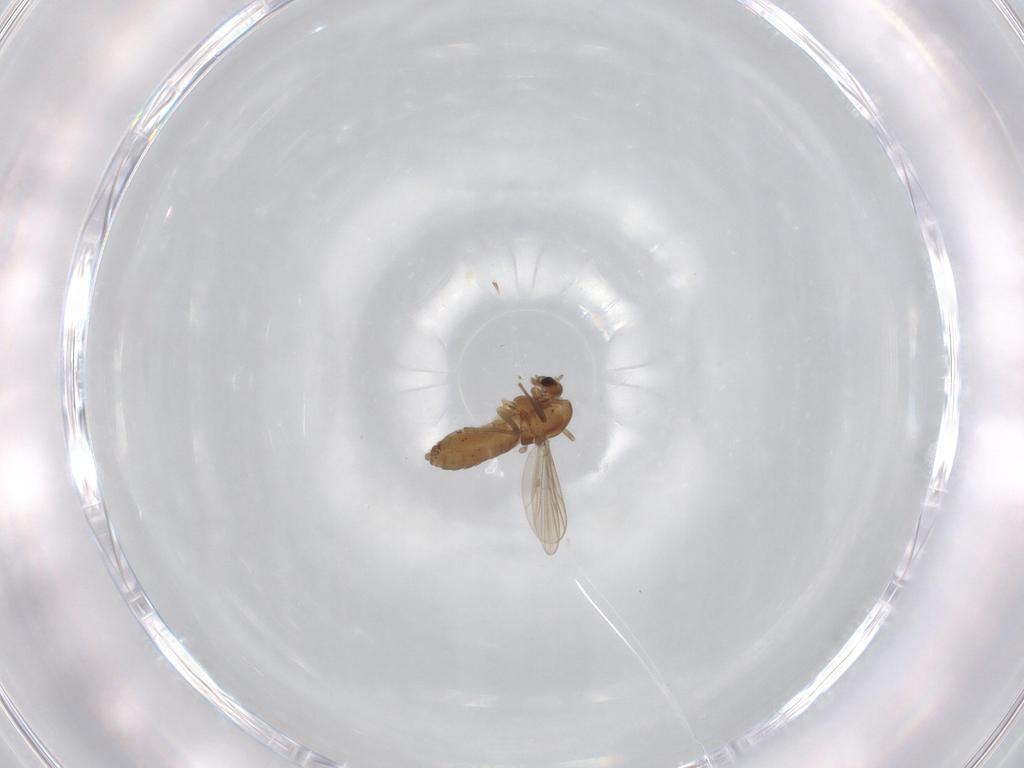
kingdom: Animalia
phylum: Arthropoda
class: Insecta
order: Diptera
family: Chironomidae
